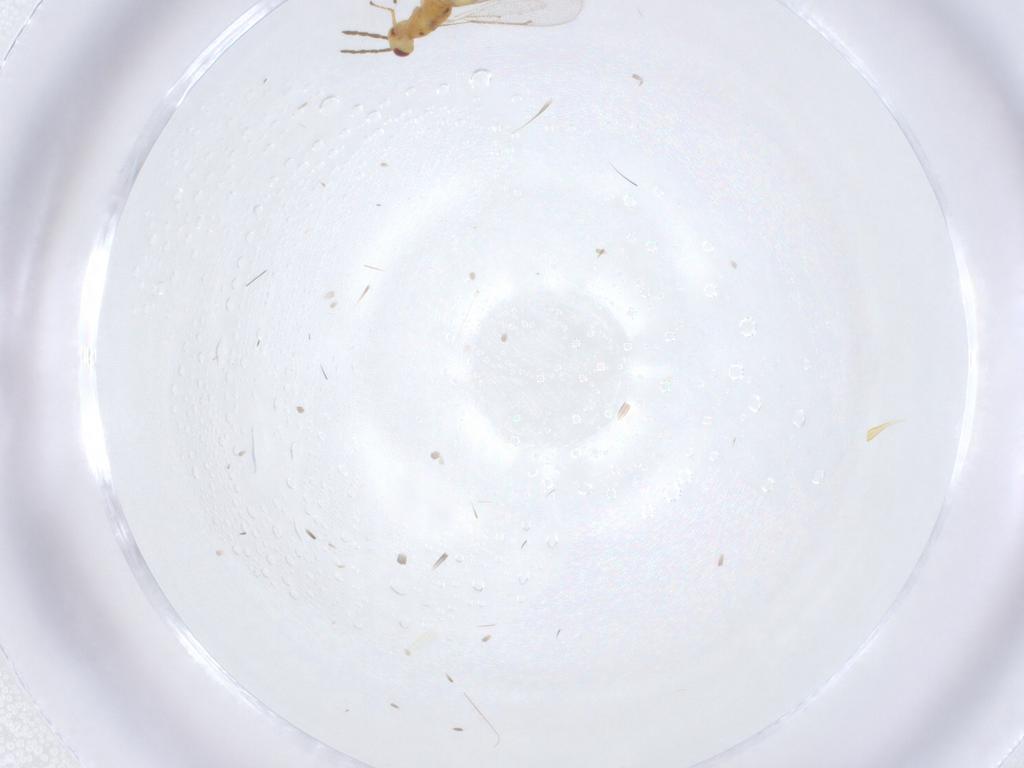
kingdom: Animalia
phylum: Arthropoda
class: Insecta
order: Hymenoptera
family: Eulophidae
